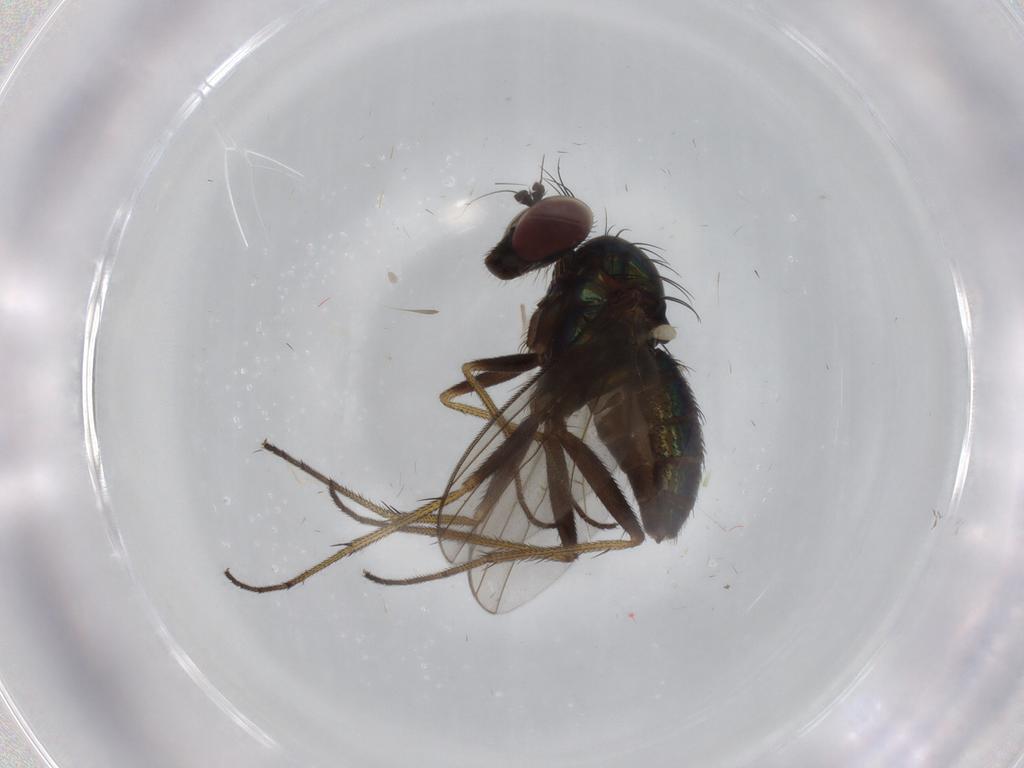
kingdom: Animalia
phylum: Arthropoda
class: Insecta
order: Diptera
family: Dolichopodidae
